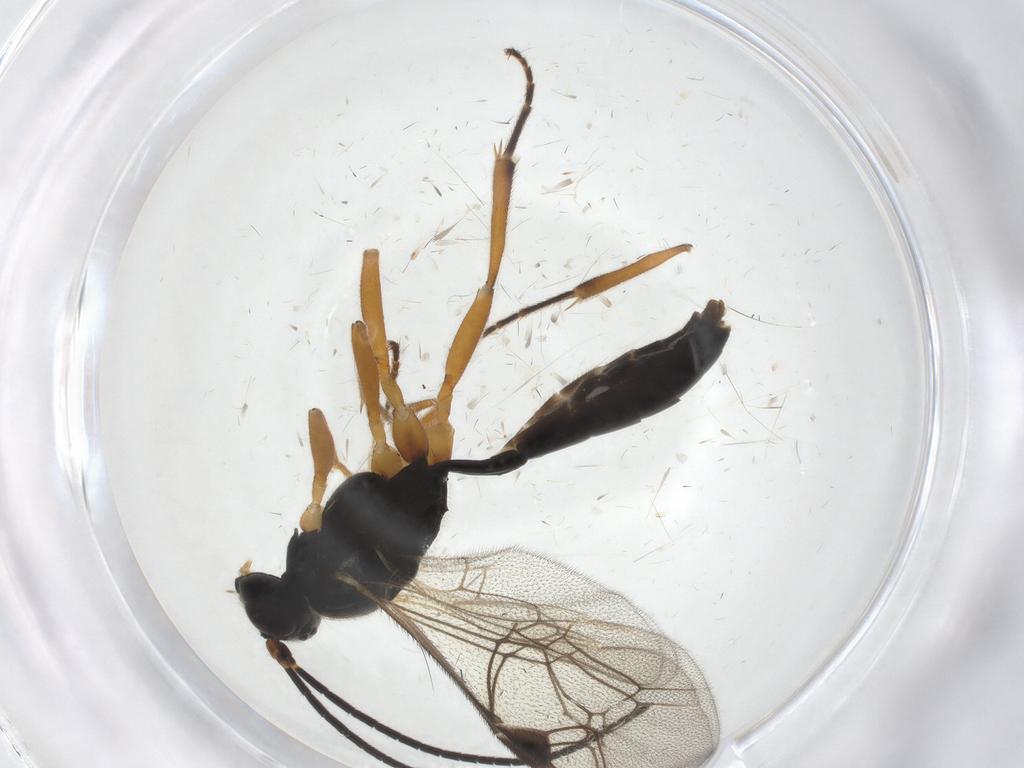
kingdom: Animalia
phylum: Arthropoda
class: Insecta
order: Hymenoptera
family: Ichneumonidae
